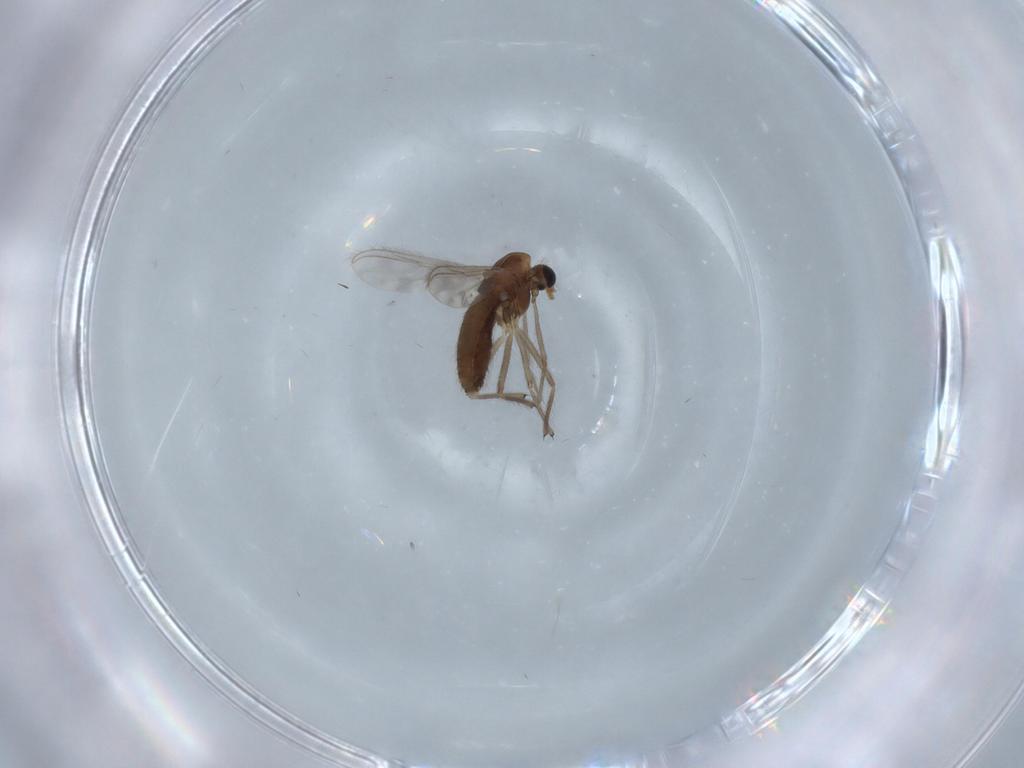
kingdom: Animalia
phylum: Arthropoda
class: Insecta
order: Diptera
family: Chironomidae
